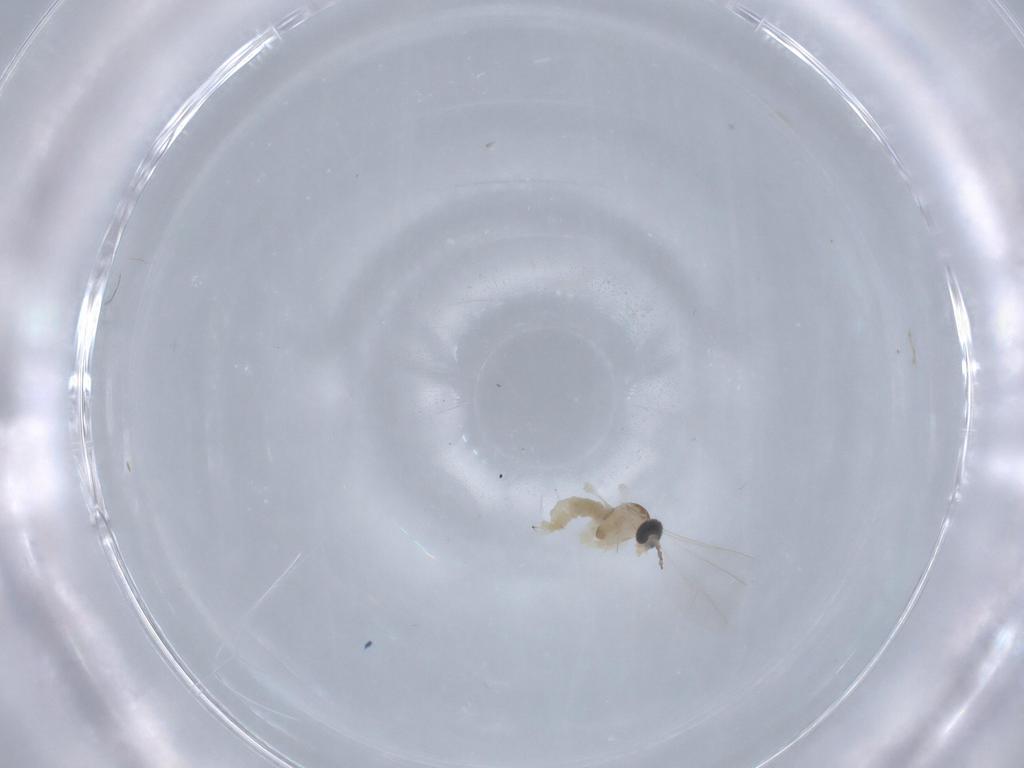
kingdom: Animalia
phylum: Arthropoda
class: Insecta
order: Diptera
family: Cecidomyiidae
